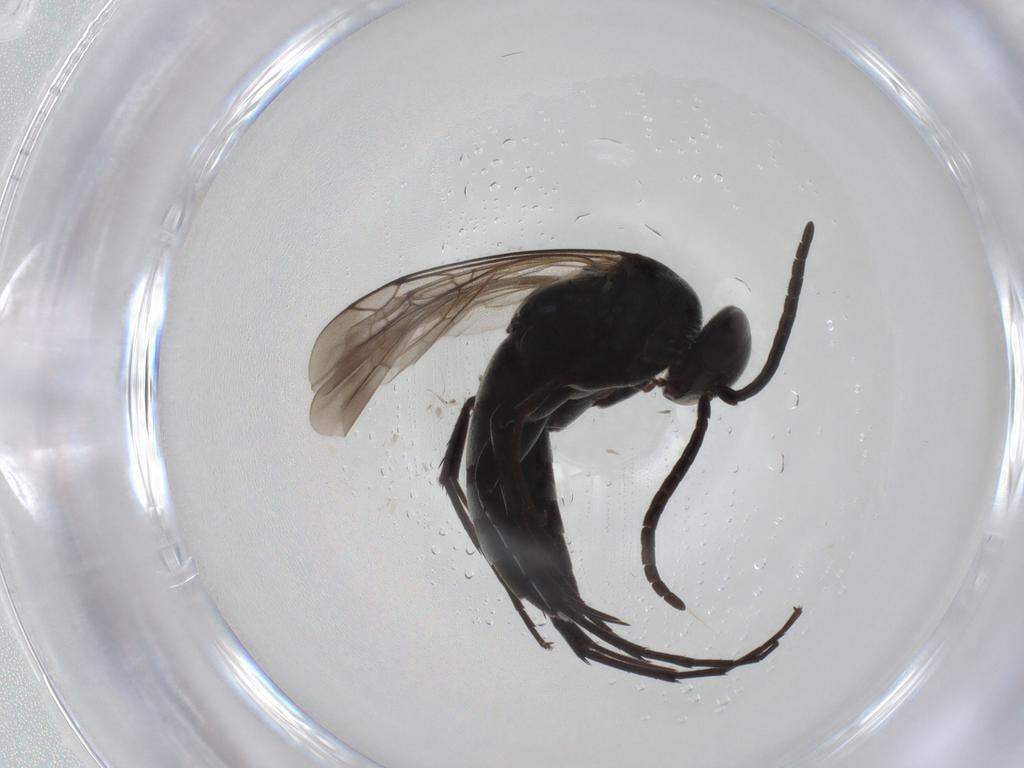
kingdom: Animalia
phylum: Arthropoda
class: Insecta
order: Hymenoptera
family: Pompilidae
